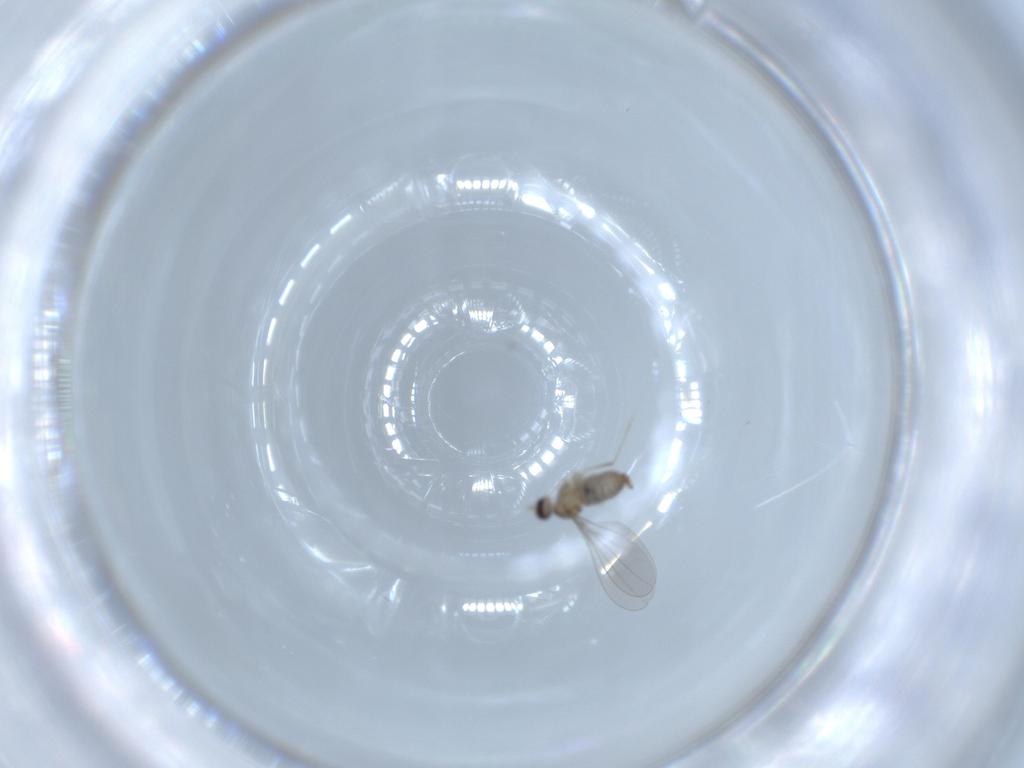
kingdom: Animalia
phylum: Arthropoda
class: Insecta
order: Diptera
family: Cecidomyiidae
